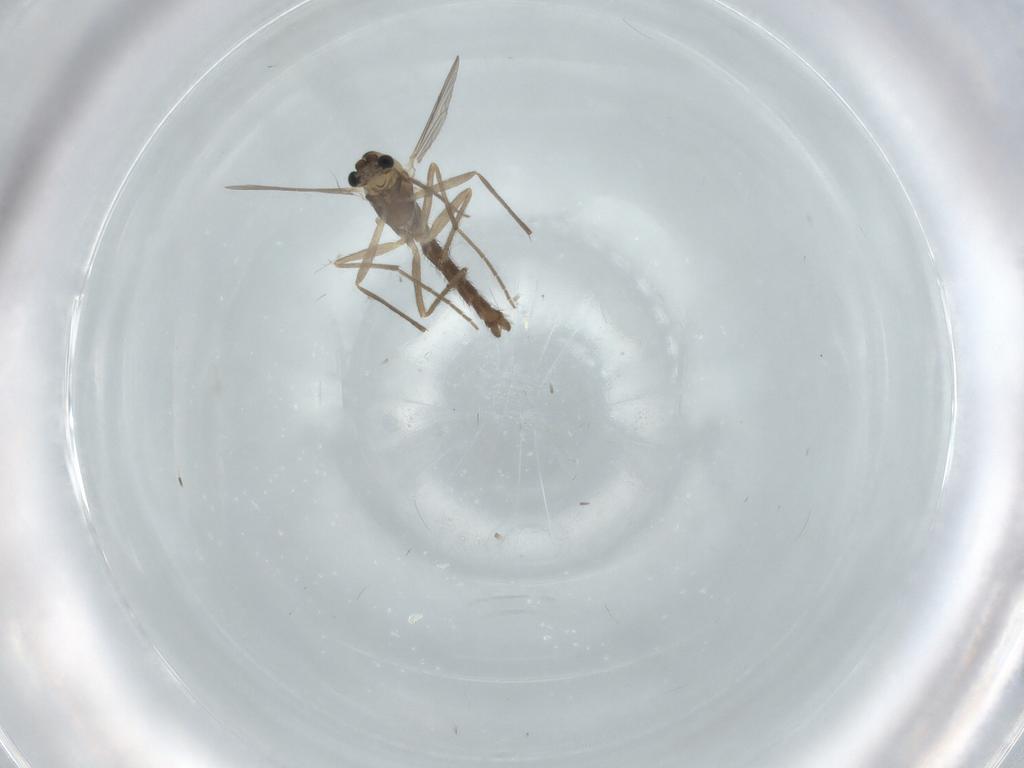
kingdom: Animalia
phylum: Arthropoda
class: Insecta
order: Diptera
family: Chironomidae
